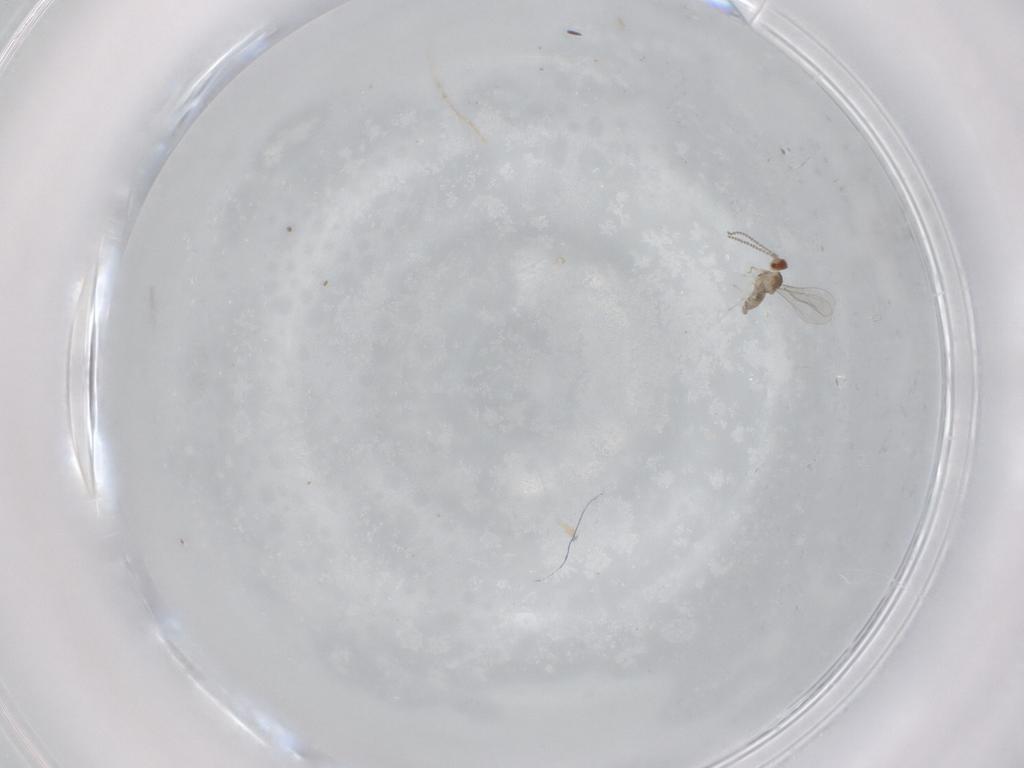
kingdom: Animalia
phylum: Arthropoda
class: Insecta
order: Diptera
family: Cecidomyiidae
